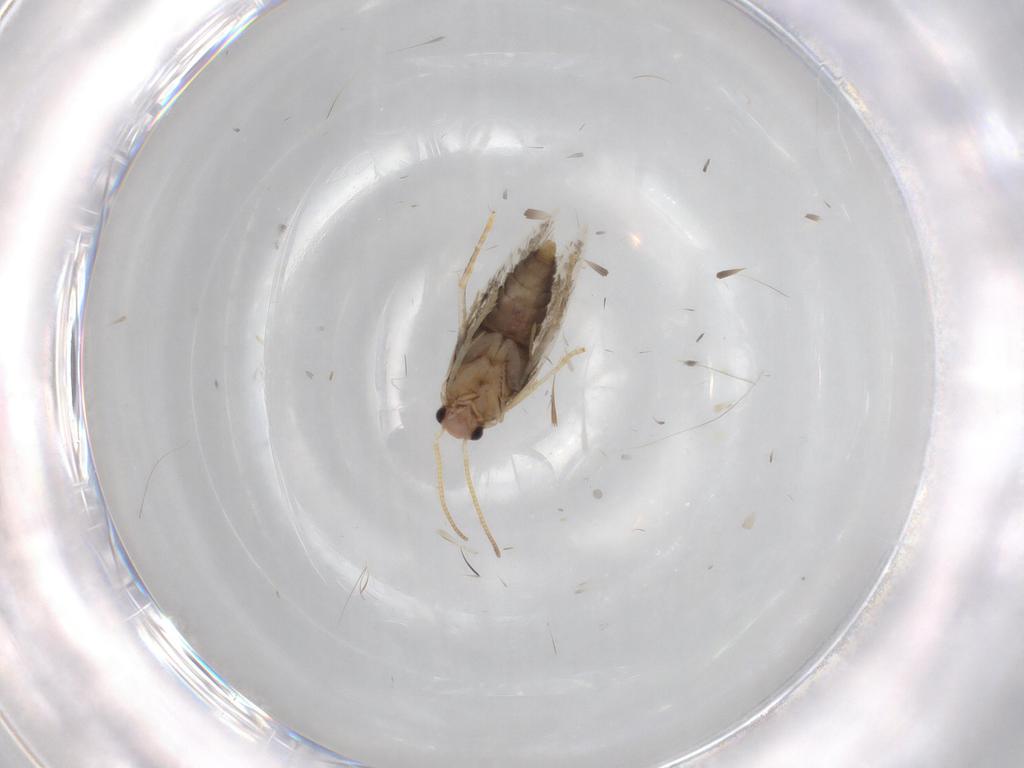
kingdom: Animalia
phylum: Arthropoda
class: Insecta
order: Lepidoptera
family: Nepticulidae
